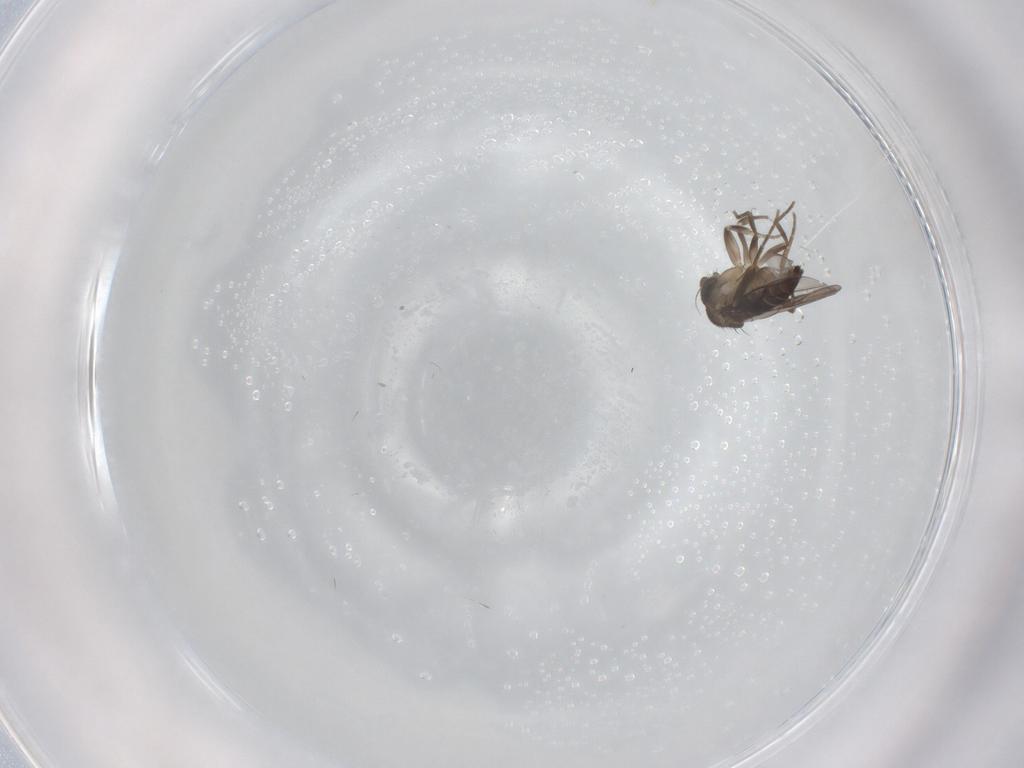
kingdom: Animalia
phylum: Arthropoda
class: Insecta
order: Diptera
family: Phoridae
